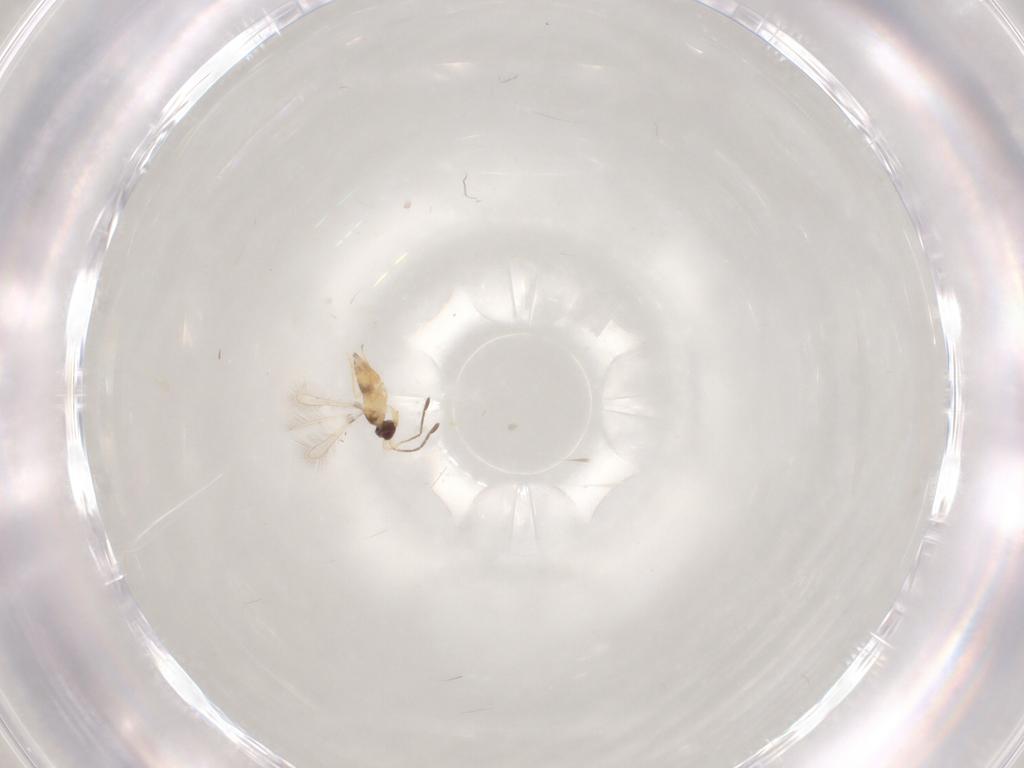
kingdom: Animalia
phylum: Arthropoda
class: Insecta
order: Hymenoptera
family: Mymaridae
